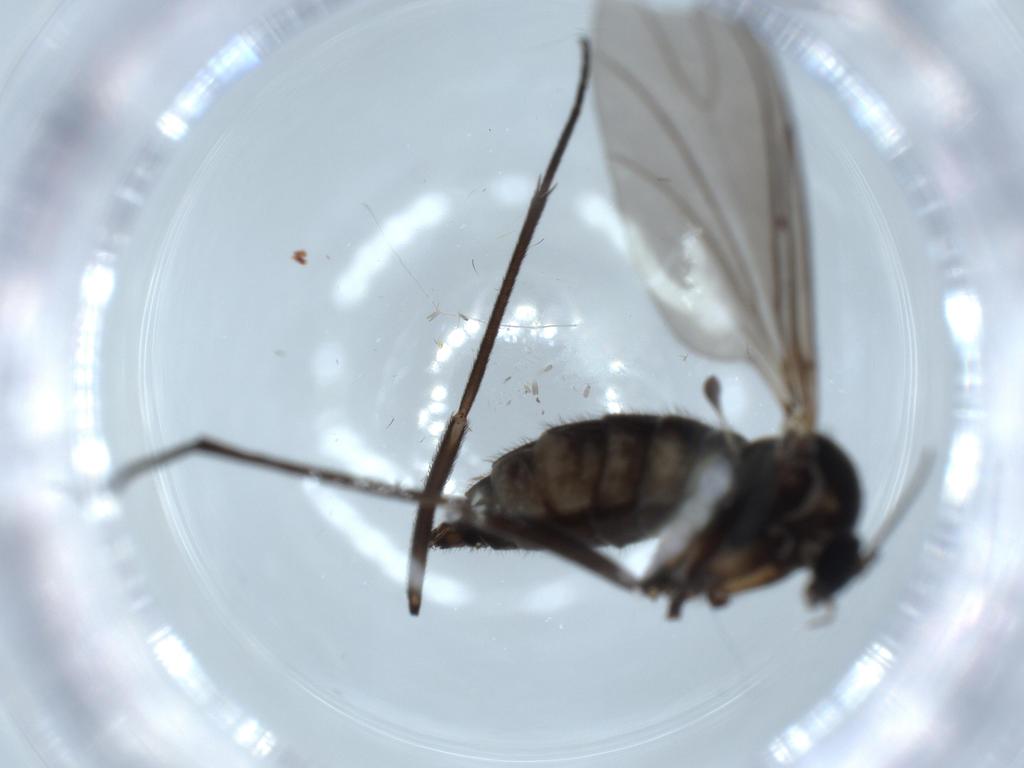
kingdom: Animalia
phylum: Arthropoda
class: Insecta
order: Diptera
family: Sciaridae
